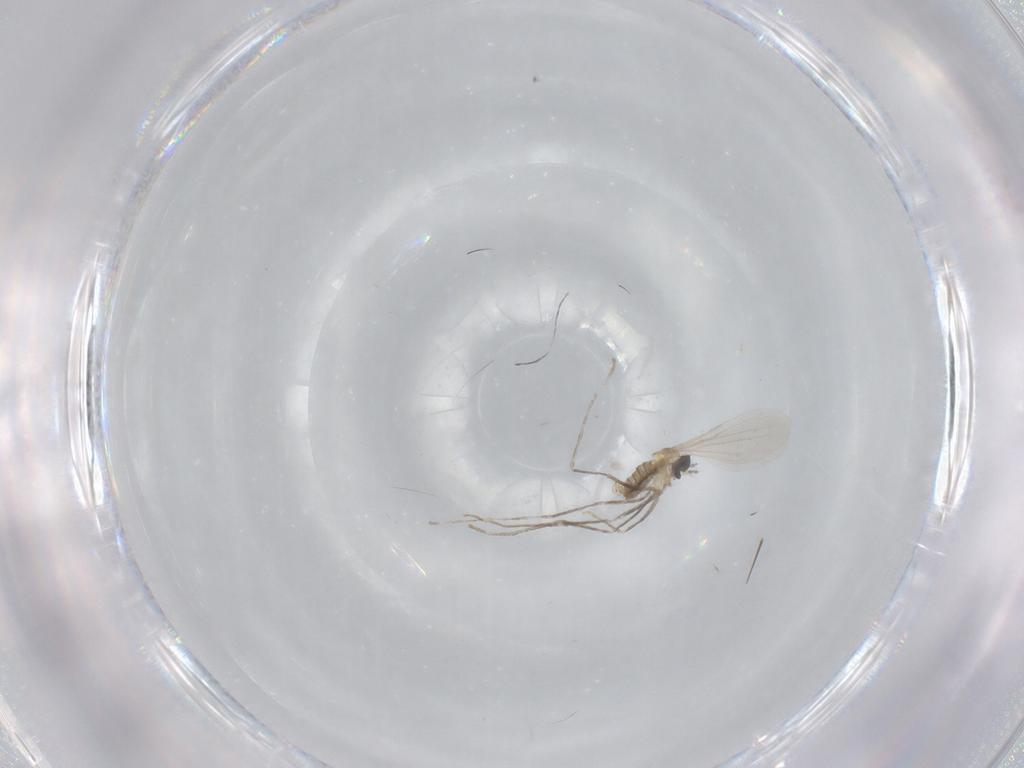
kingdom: Animalia
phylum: Arthropoda
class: Insecta
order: Diptera
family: Cecidomyiidae
